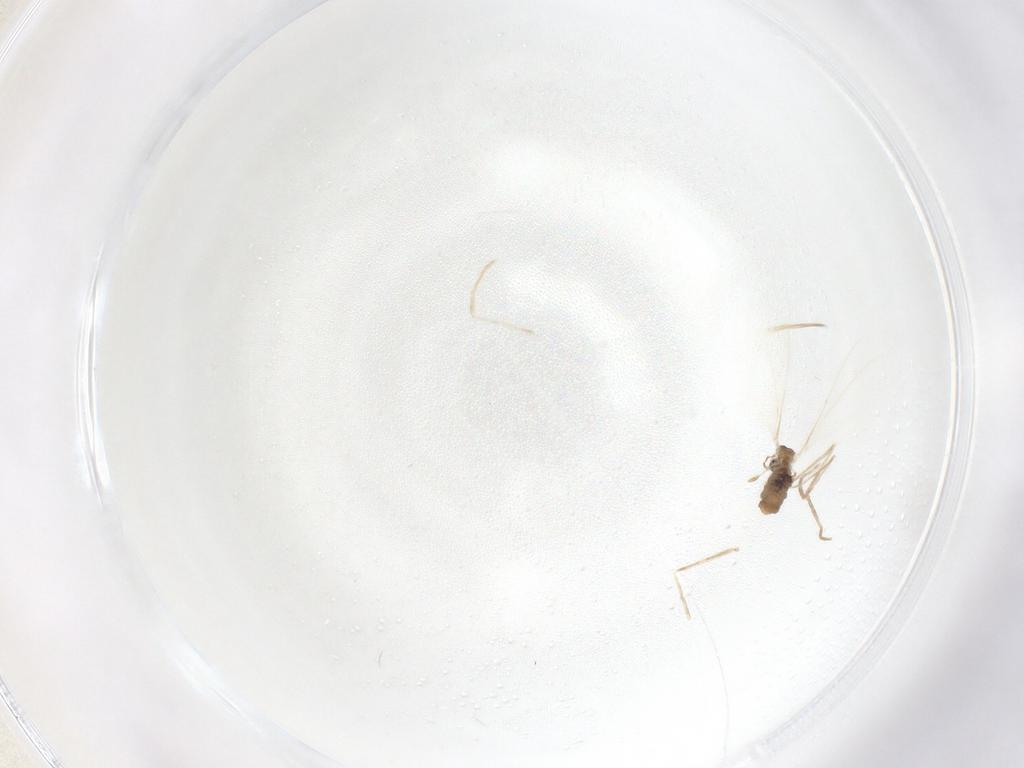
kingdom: Animalia
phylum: Arthropoda
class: Insecta
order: Diptera
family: Cecidomyiidae
